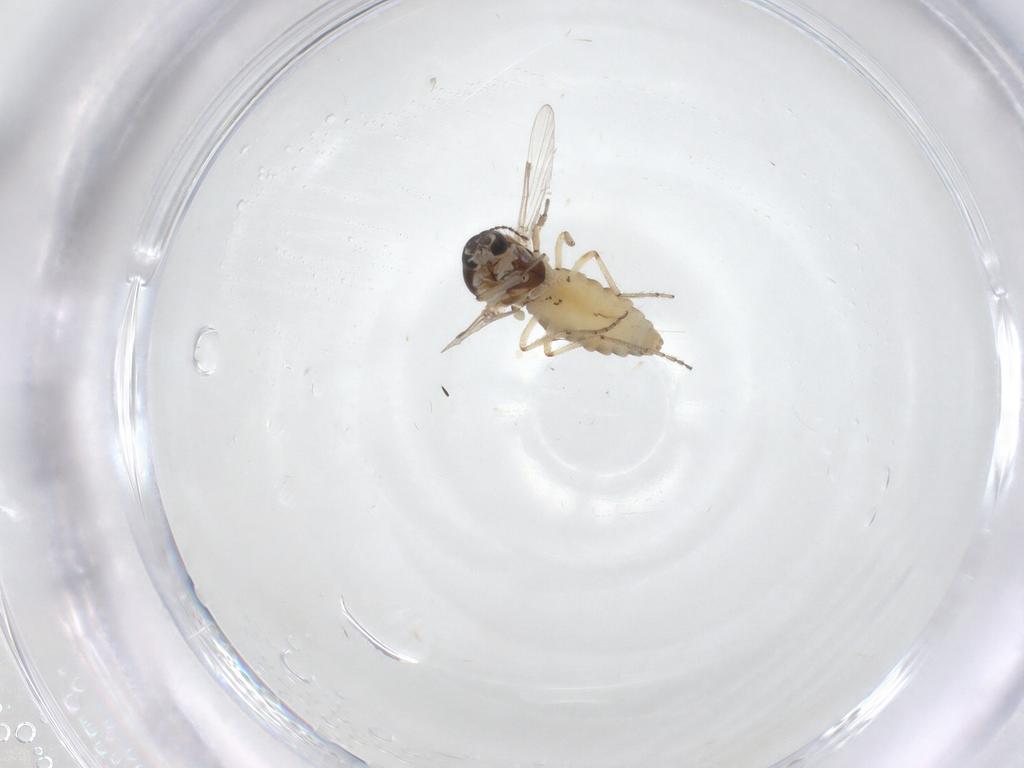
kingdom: Animalia
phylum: Arthropoda
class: Insecta
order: Diptera
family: Ceratopogonidae
